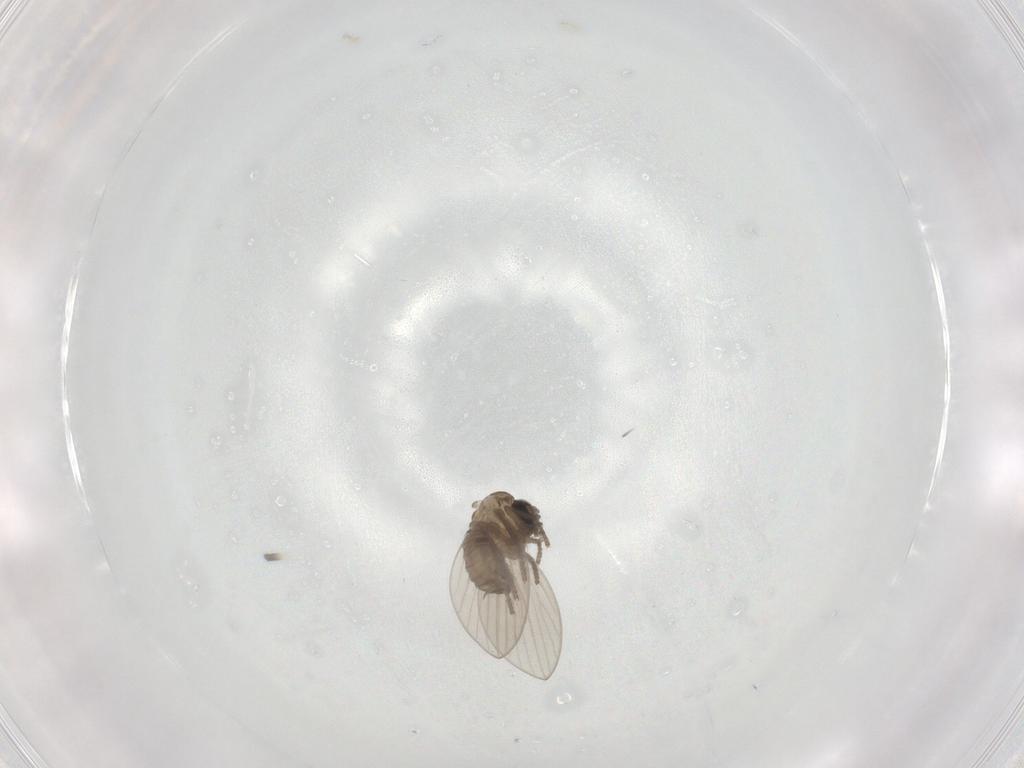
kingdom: Animalia
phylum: Arthropoda
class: Insecta
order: Diptera
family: Psychodidae
